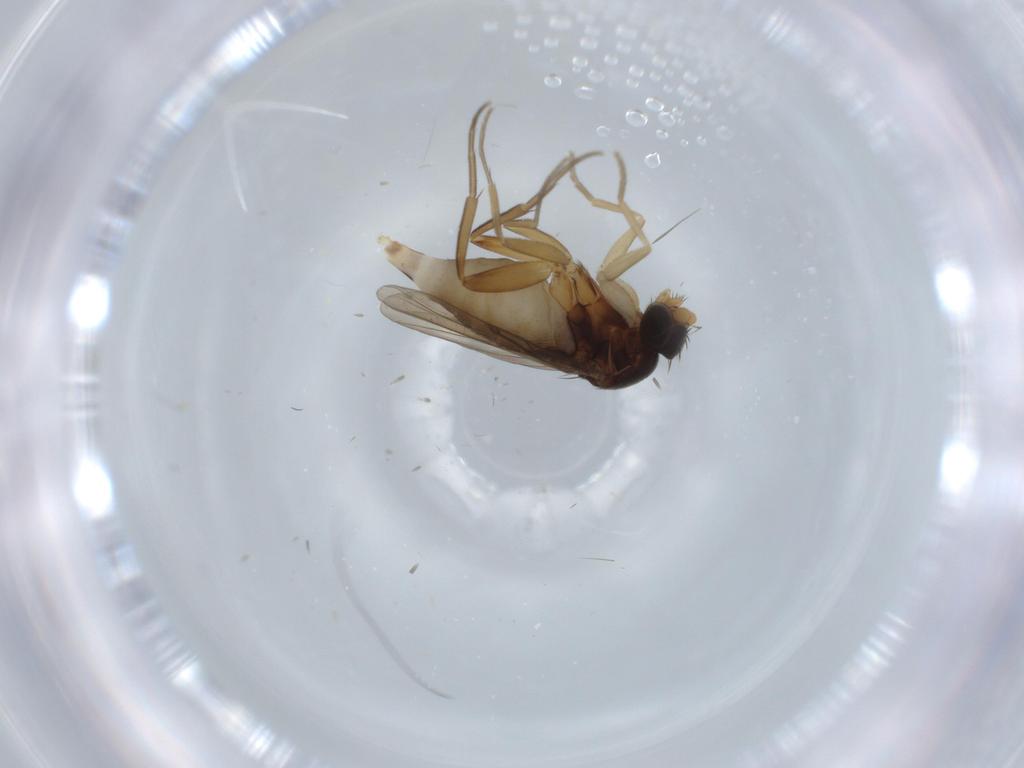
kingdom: Animalia
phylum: Arthropoda
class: Insecta
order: Diptera
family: Phoridae
